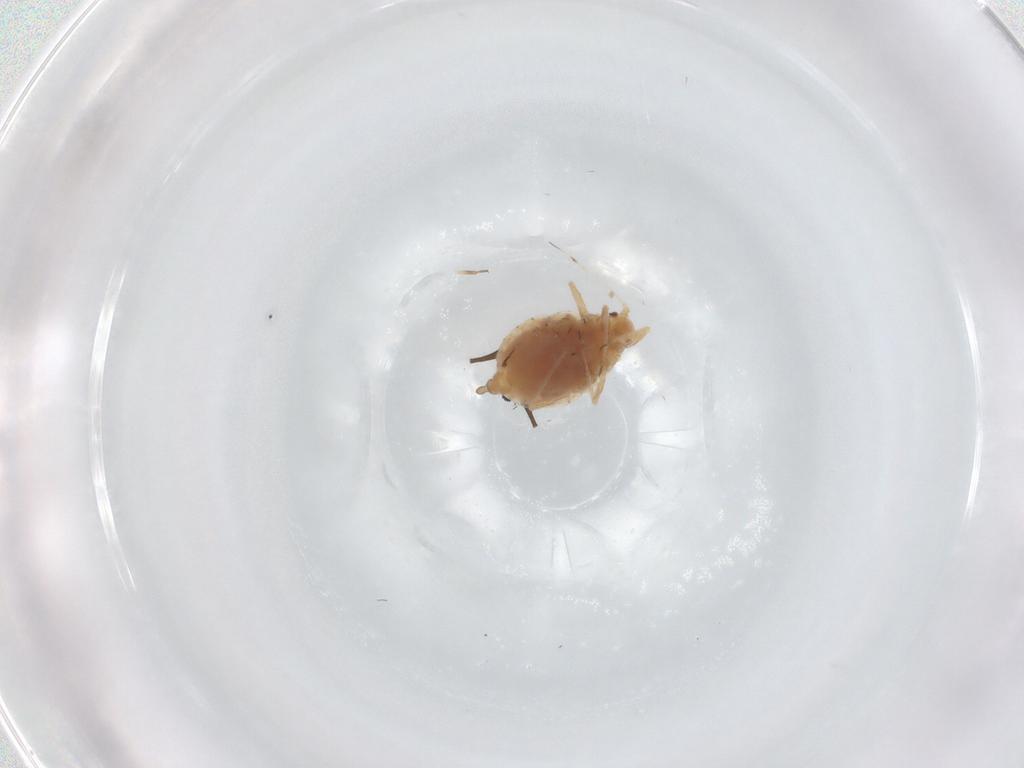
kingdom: Animalia
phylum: Arthropoda
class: Insecta
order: Hemiptera
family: Aphididae
